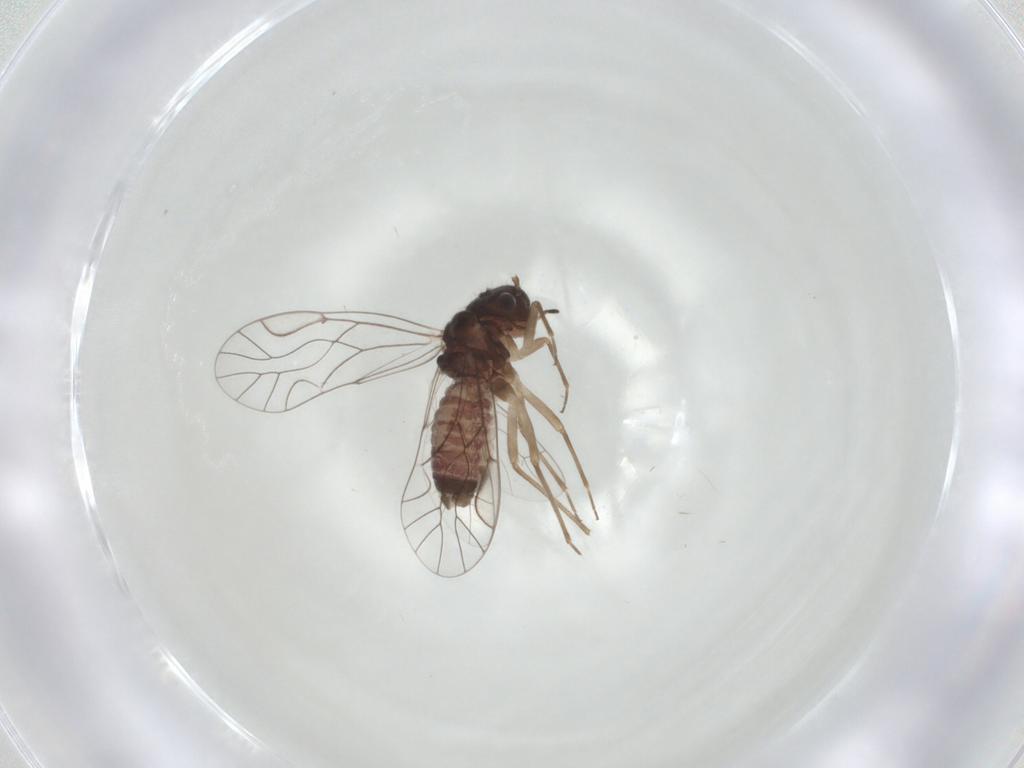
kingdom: Animalia
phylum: Arthropoda
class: Insecta
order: Psocodea
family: Lachesillidae
